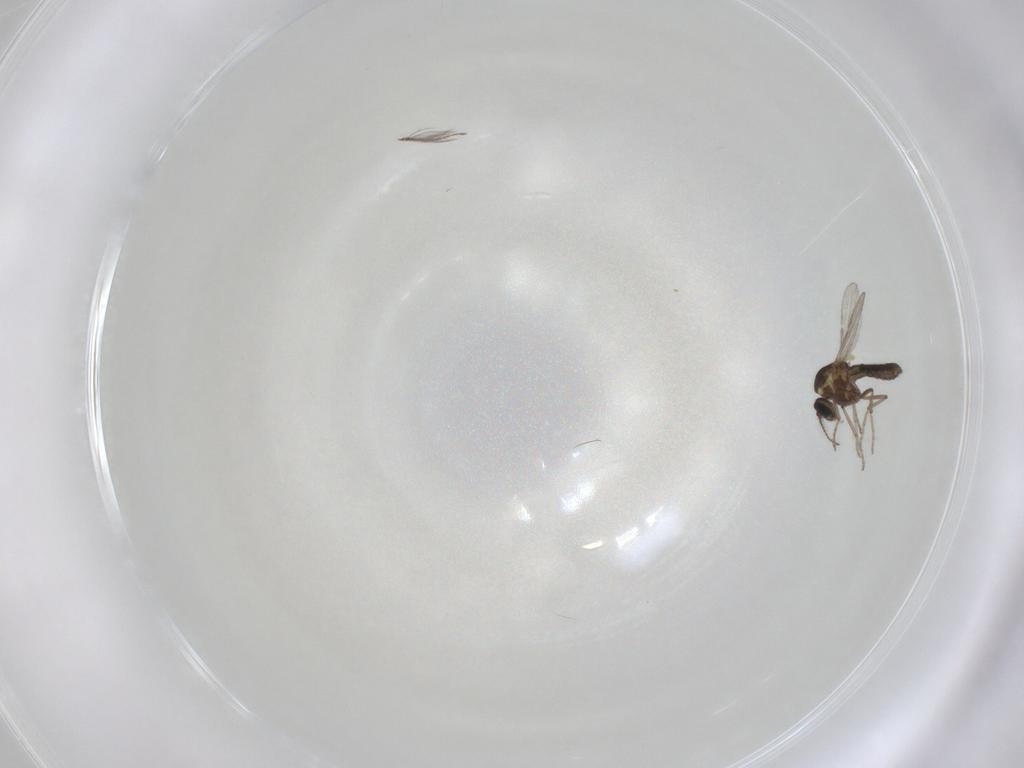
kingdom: Animalia
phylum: Arthropoda
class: Insecta
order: Diptera
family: Ceratopogonidae
